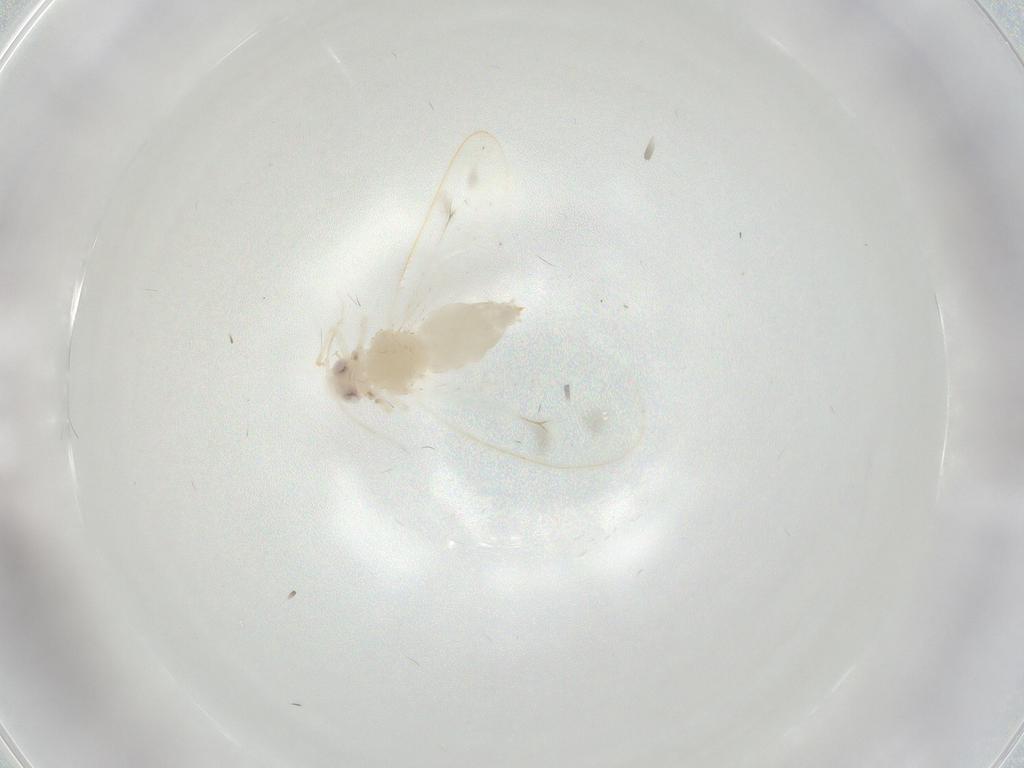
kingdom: Animalia
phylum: Arthropoda
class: Insecta
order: Hemiptera
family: Aleyrodidae
